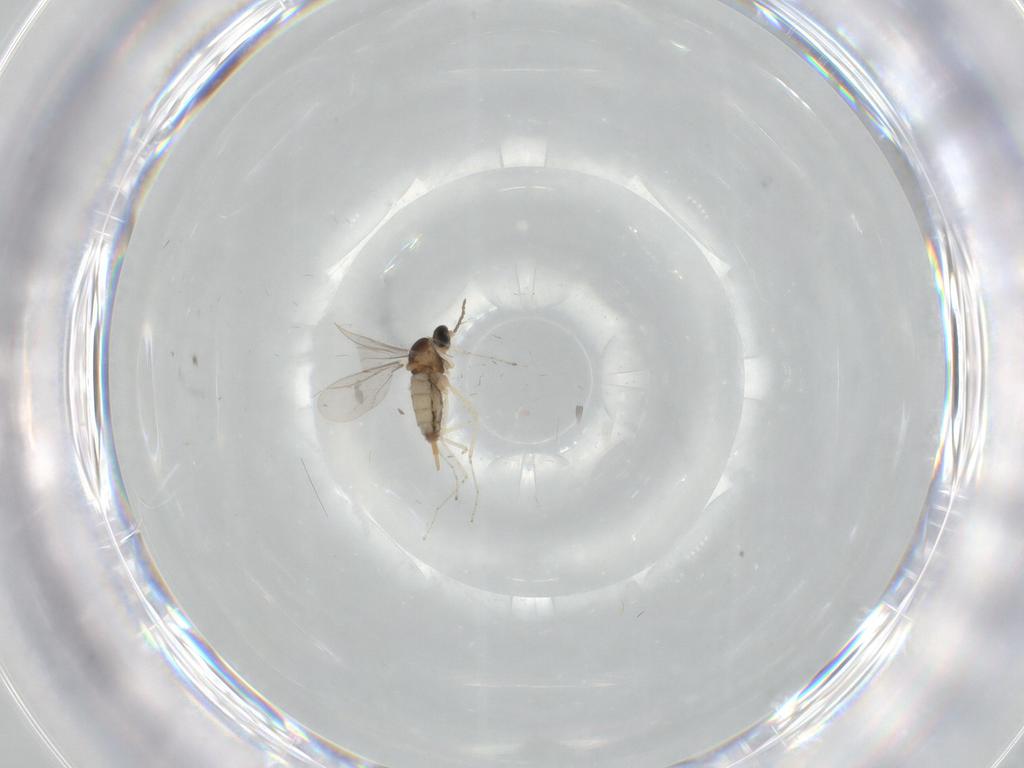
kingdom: Animalia
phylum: Arthropoda
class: Insecta
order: Diptera
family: Cecidomyiidae
